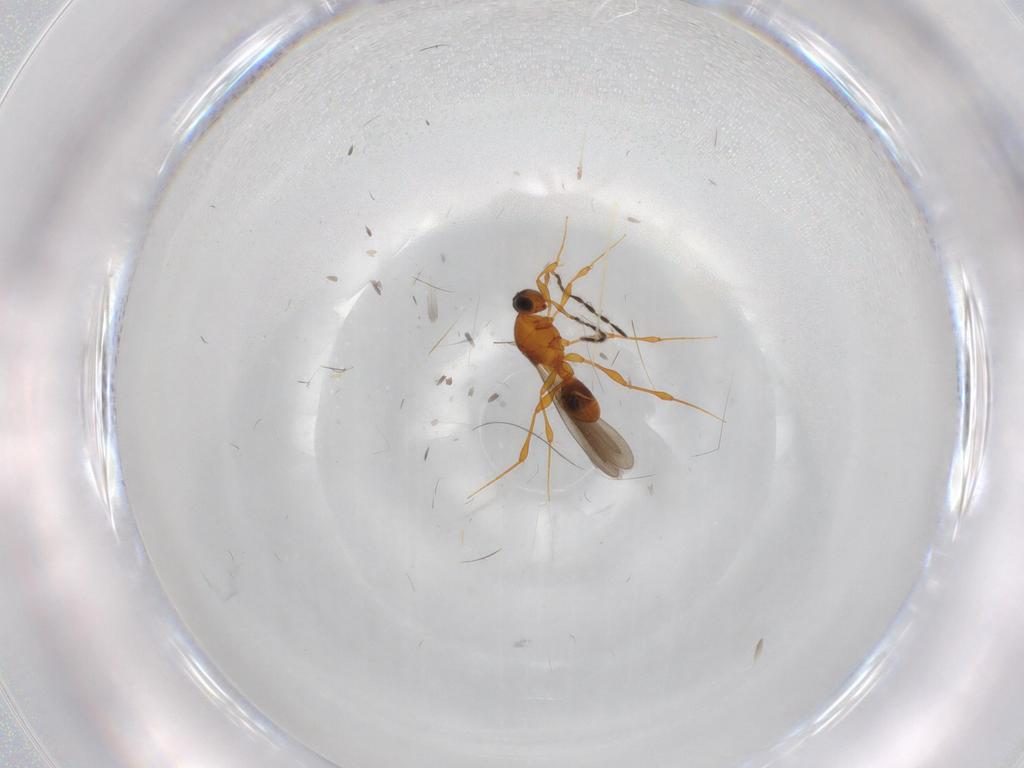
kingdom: Animalia
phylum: Arthropoda
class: Insecta
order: Hymenoptera
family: Platygastridae
